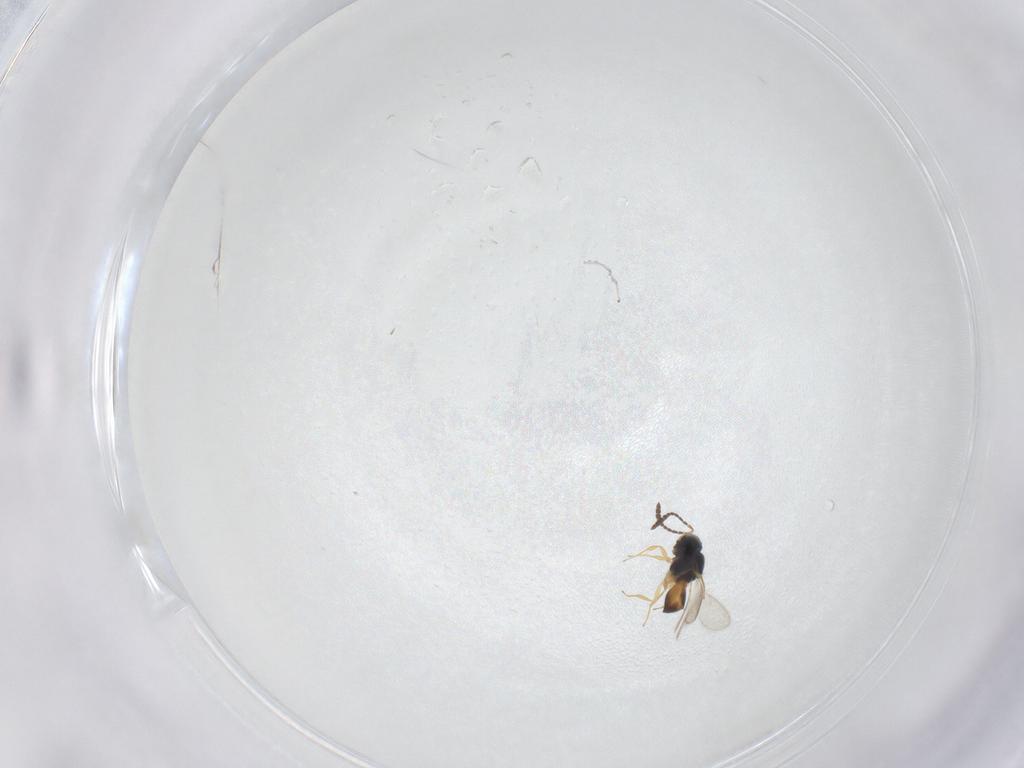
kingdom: Animalia
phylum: Arthropoda
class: Insecta
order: Hymenoptera
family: Scelionidae
